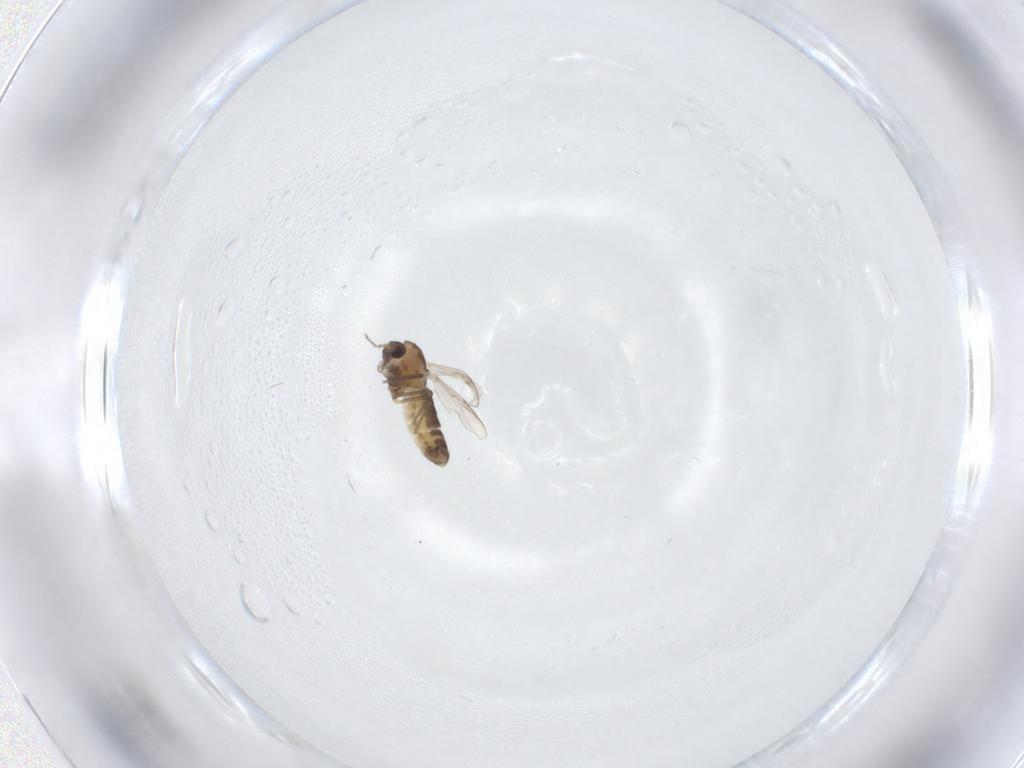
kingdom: Animalia
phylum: Arthropoda
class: Insecta
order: Diptera
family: Chironomidae
